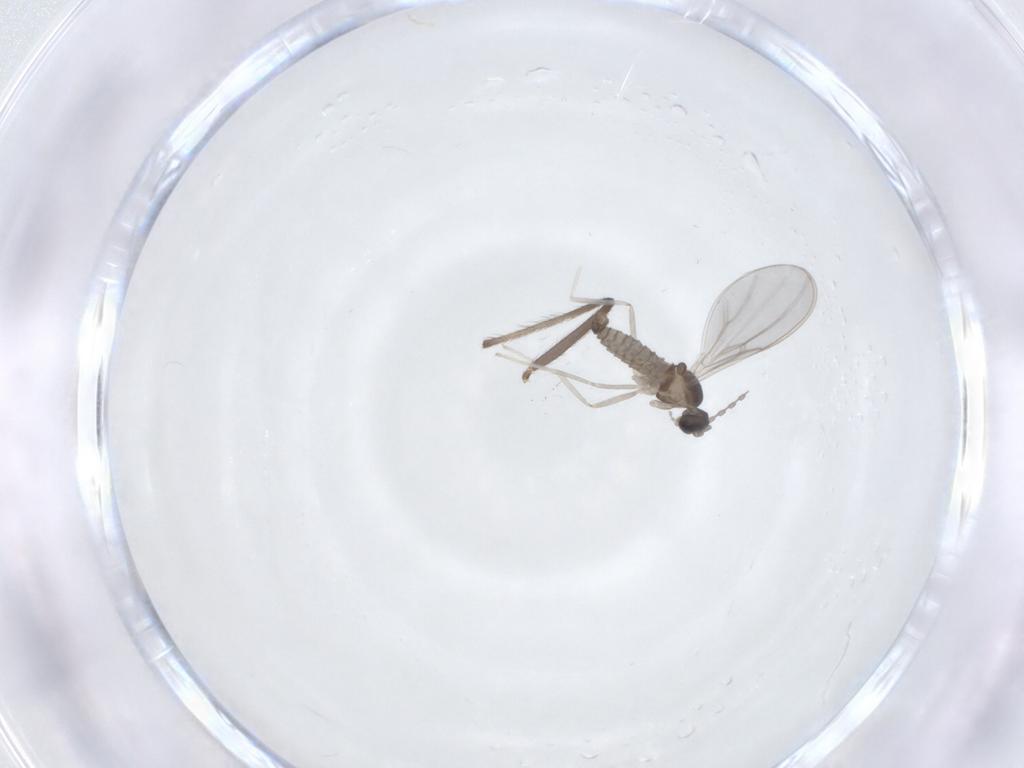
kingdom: Animalia
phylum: Arthropoda
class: Insecta
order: Diptera
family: Cecidomyiidae
